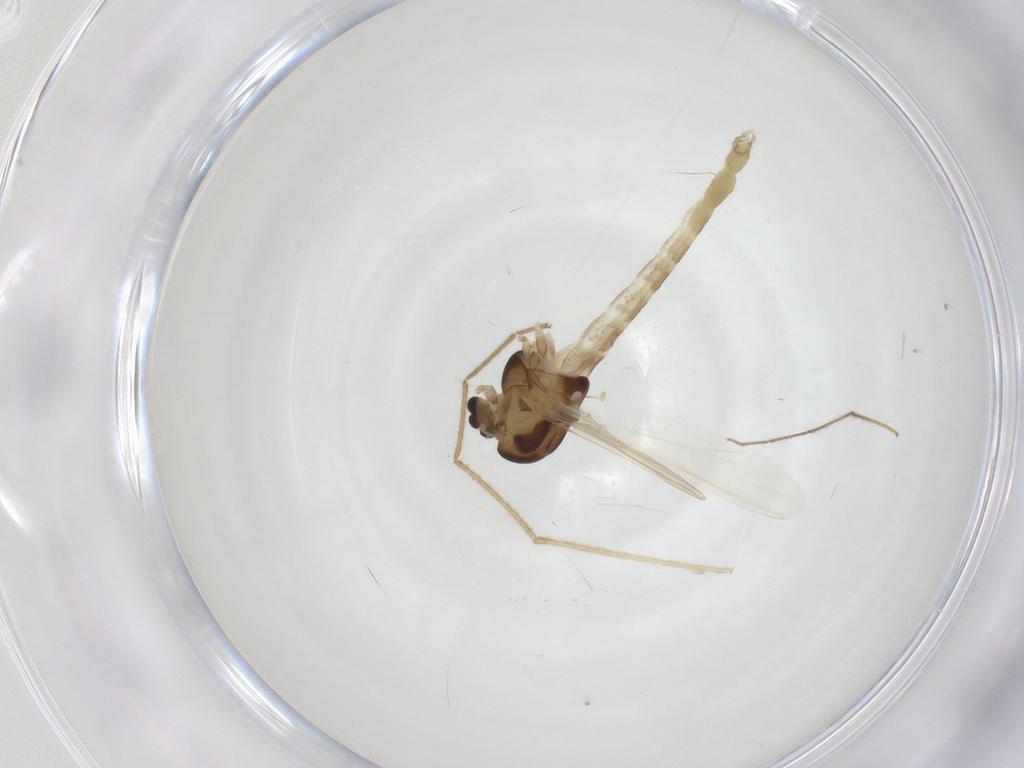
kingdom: Animalia
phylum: Arthropoda
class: Insecta
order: Diptera
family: Chironomidae
